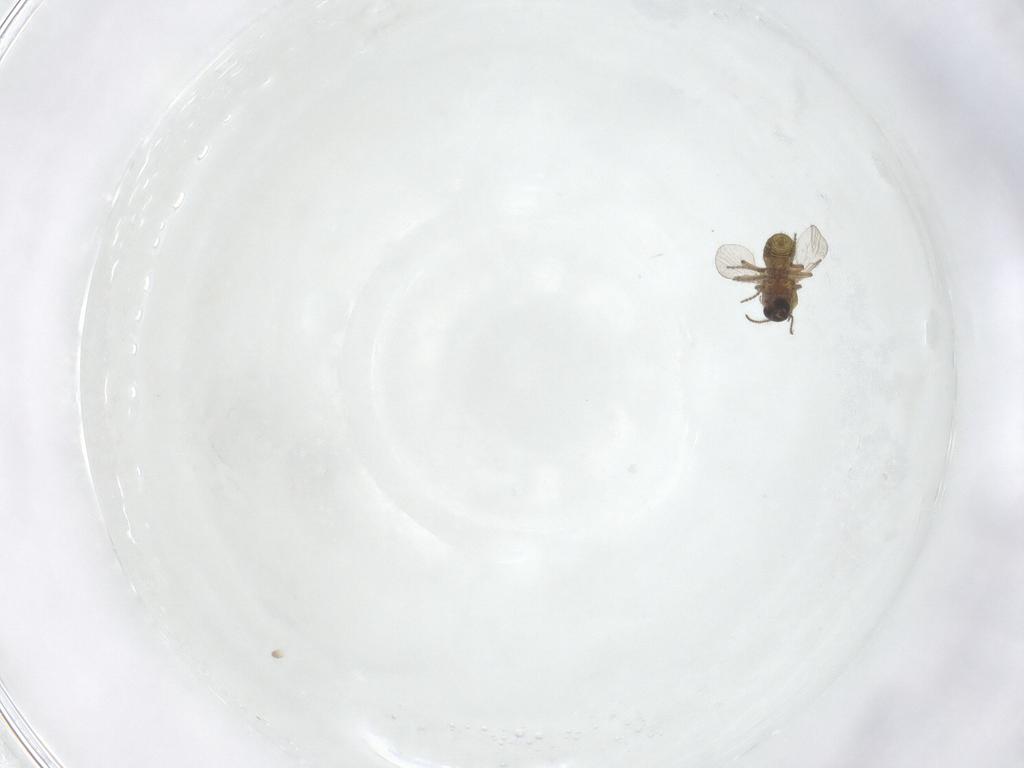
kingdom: Animalia
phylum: Arthropoda
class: Insecta
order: Diptera
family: Ceratopogonidae
